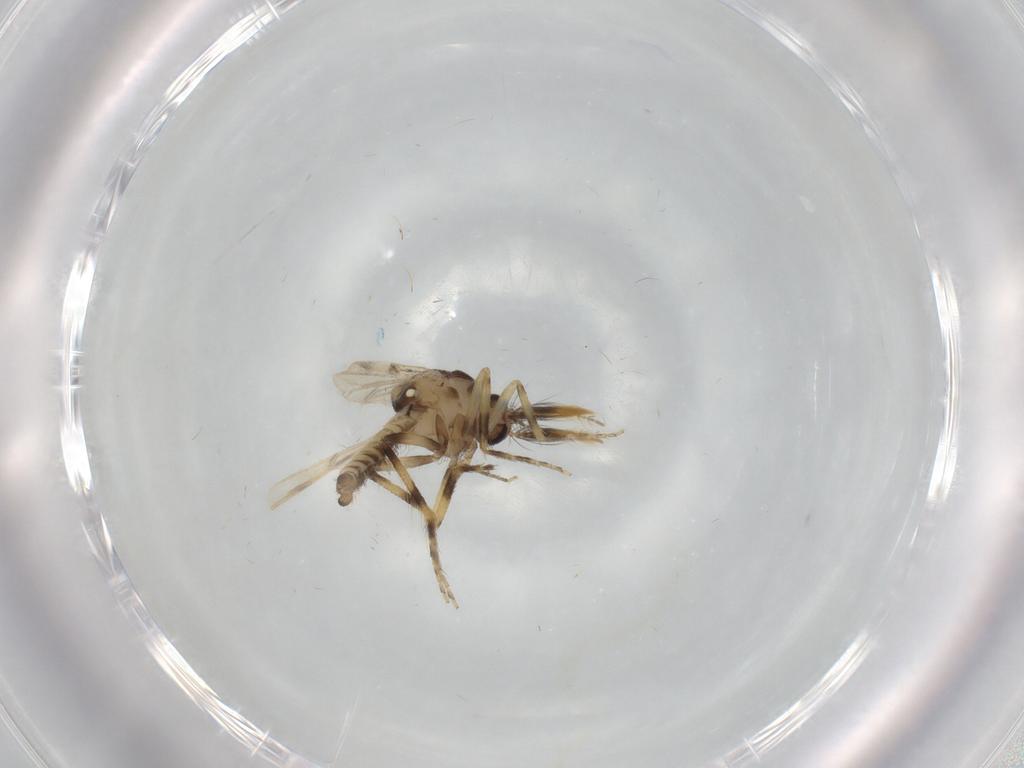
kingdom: Animalia
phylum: Arthropoda
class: Insecta
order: Diptera
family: Ceratopogonidae
